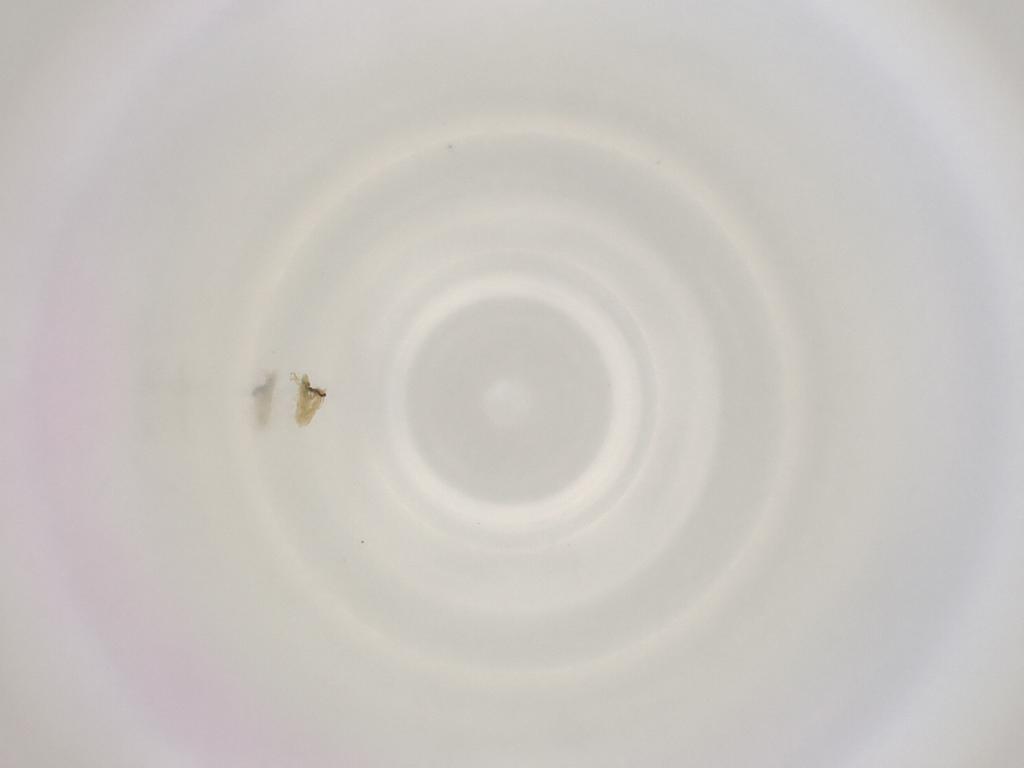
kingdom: Animalia
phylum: Arthropoda
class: Insecta
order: Diptera
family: Cecidomyiidae
